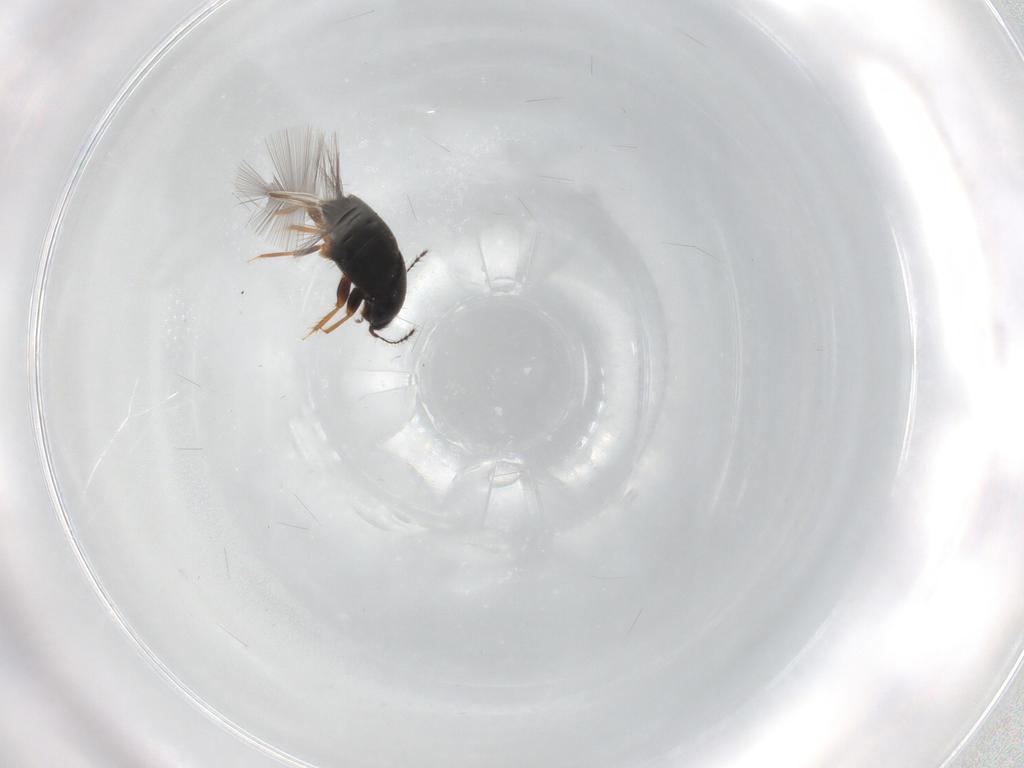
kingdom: Animalia
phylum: Arthropoda
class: Insecta
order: Coleoptera
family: Ptiliidae
